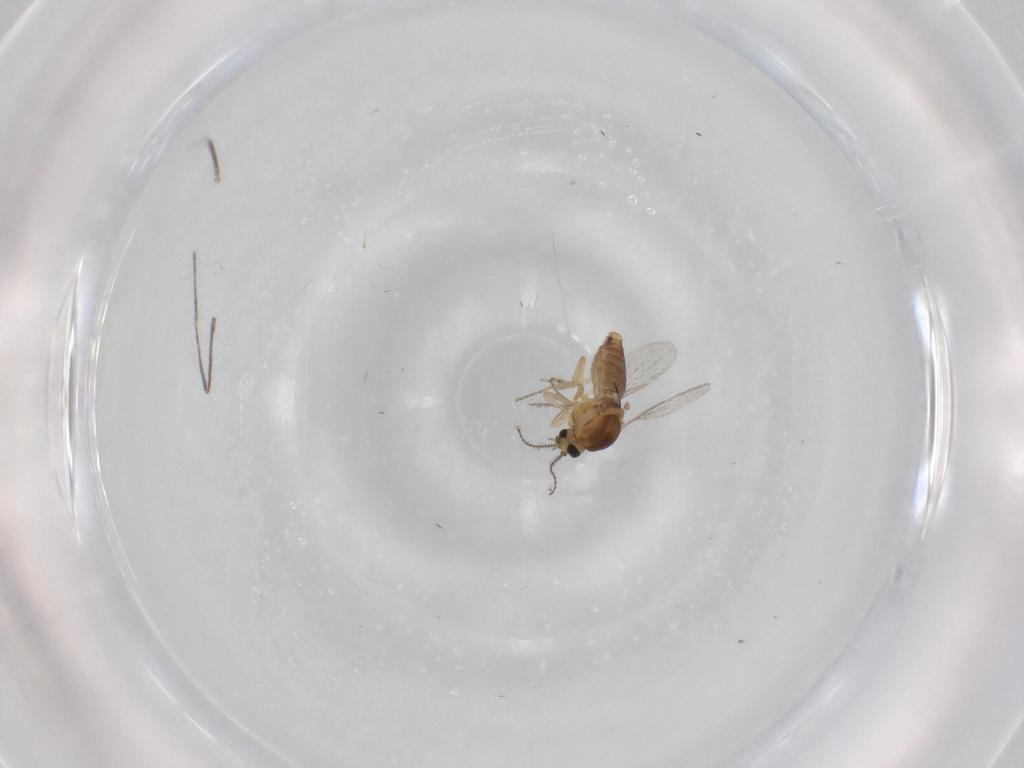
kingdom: Animalia
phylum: Arthropoda
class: Insecta
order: Diptera
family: Ceratopogonidae
